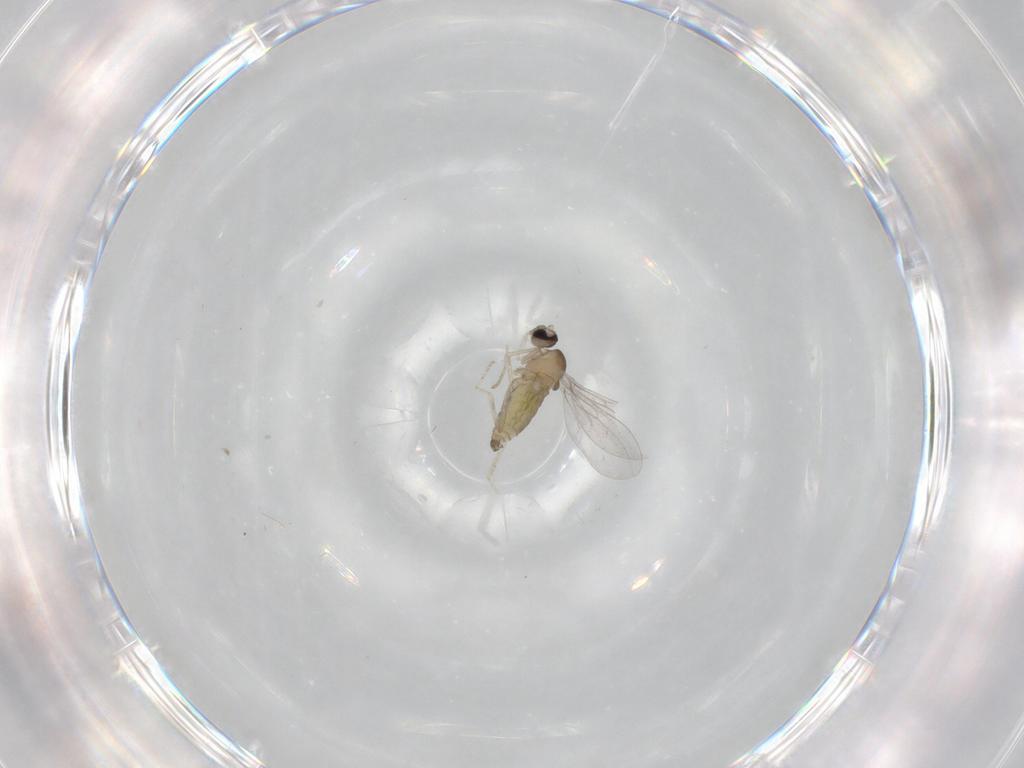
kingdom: Animalia
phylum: Arthropoda
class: Insecta
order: Diptera
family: Cecidomyiidae
